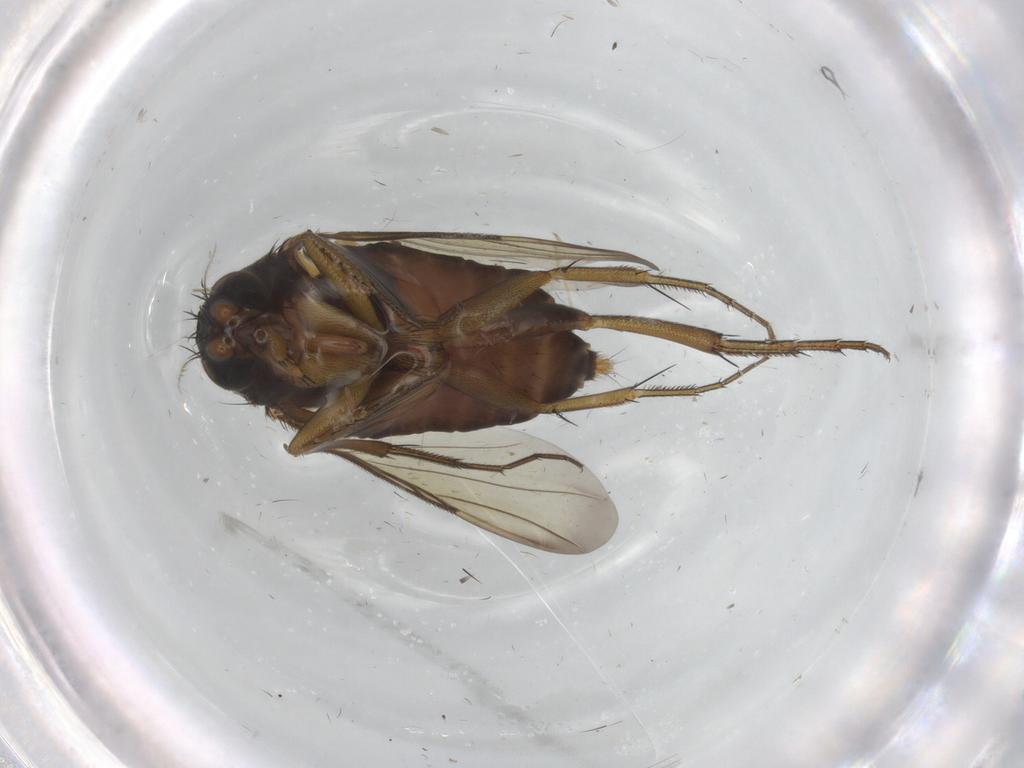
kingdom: Animalia
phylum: Arthropoda
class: Insecta
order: Diptera
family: Phoridae
